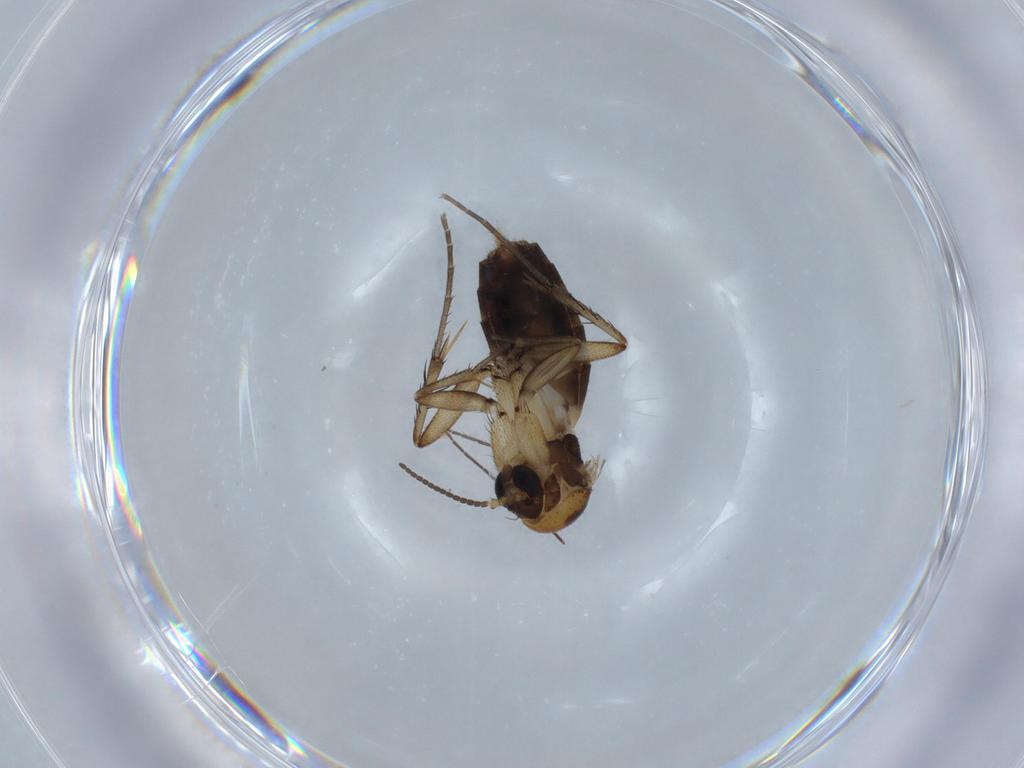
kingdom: Animalia
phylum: Arthropoda
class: Insecta
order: Diptera
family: Mycetophilidae
